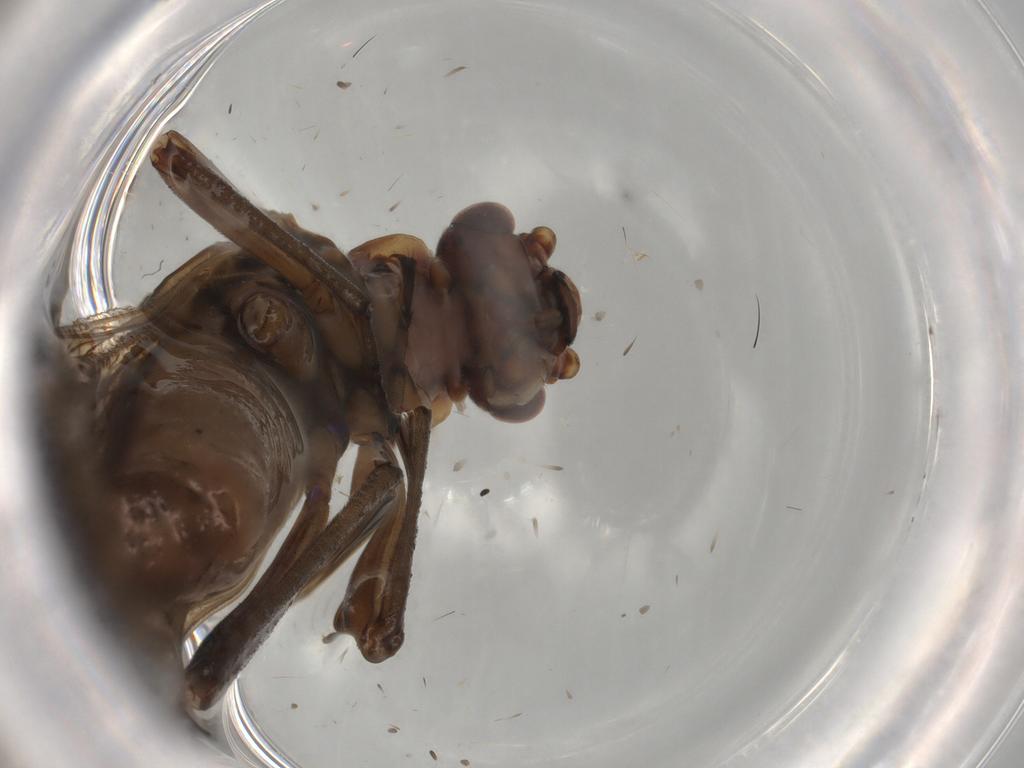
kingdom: Animalia
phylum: Arthropoda
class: Insecta
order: Plecoptera
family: Nemouridae
